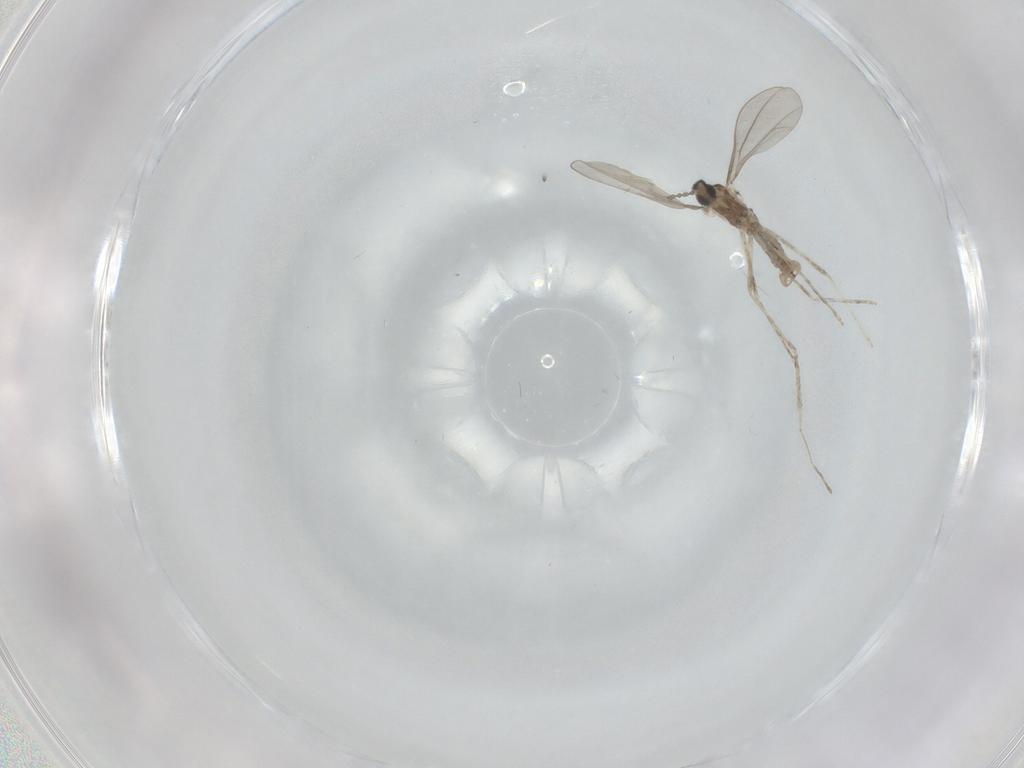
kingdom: Animalia
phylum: Arthropoda
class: Insecta
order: Diptera
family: Cecidomyiidae
